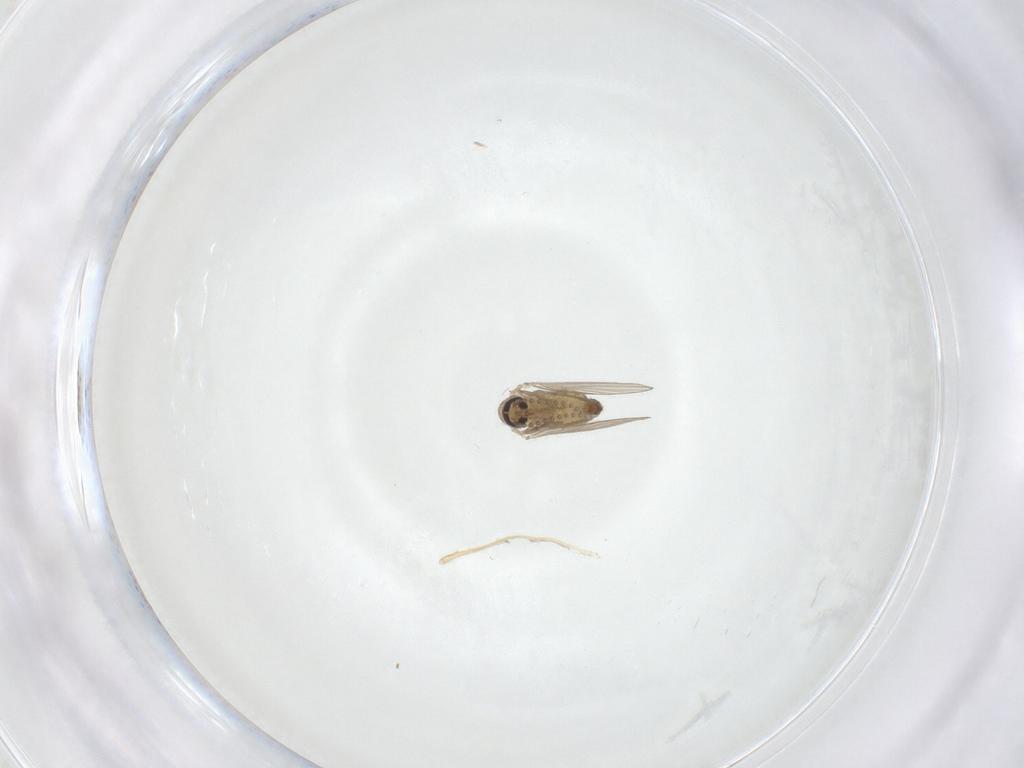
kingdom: Animalia
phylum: Arthropoda
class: Insecta
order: Diptera
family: Psychodidae
